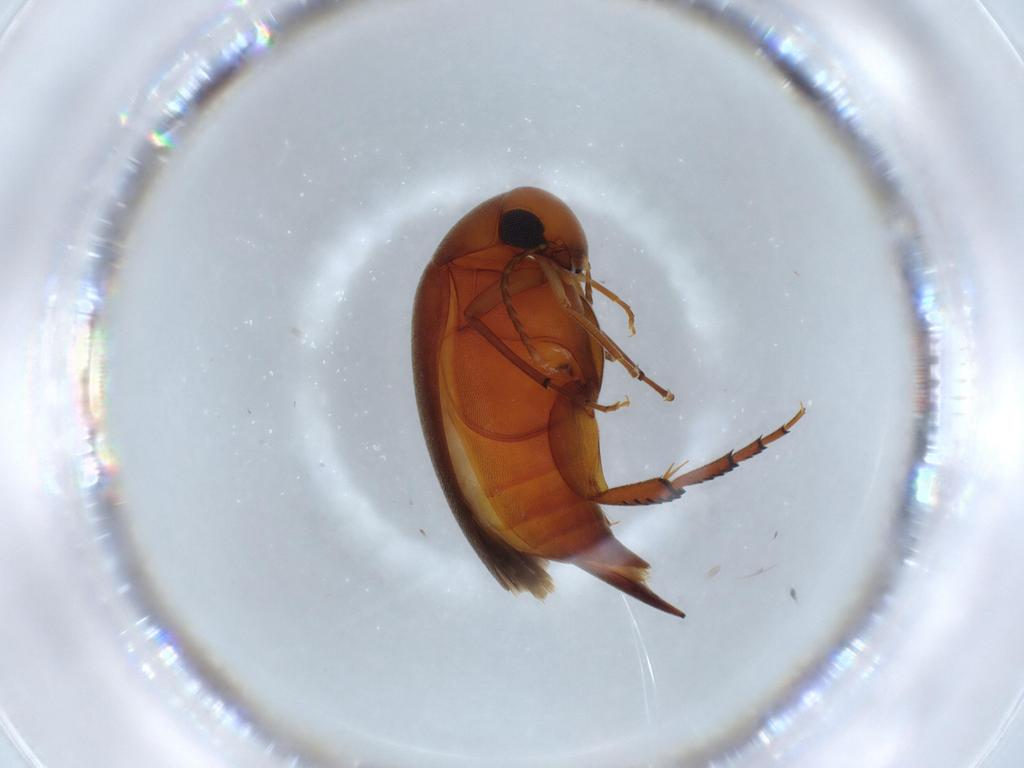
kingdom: Animalia
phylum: Arthropoda
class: Insecta
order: Coleoptera
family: Mordellidae
